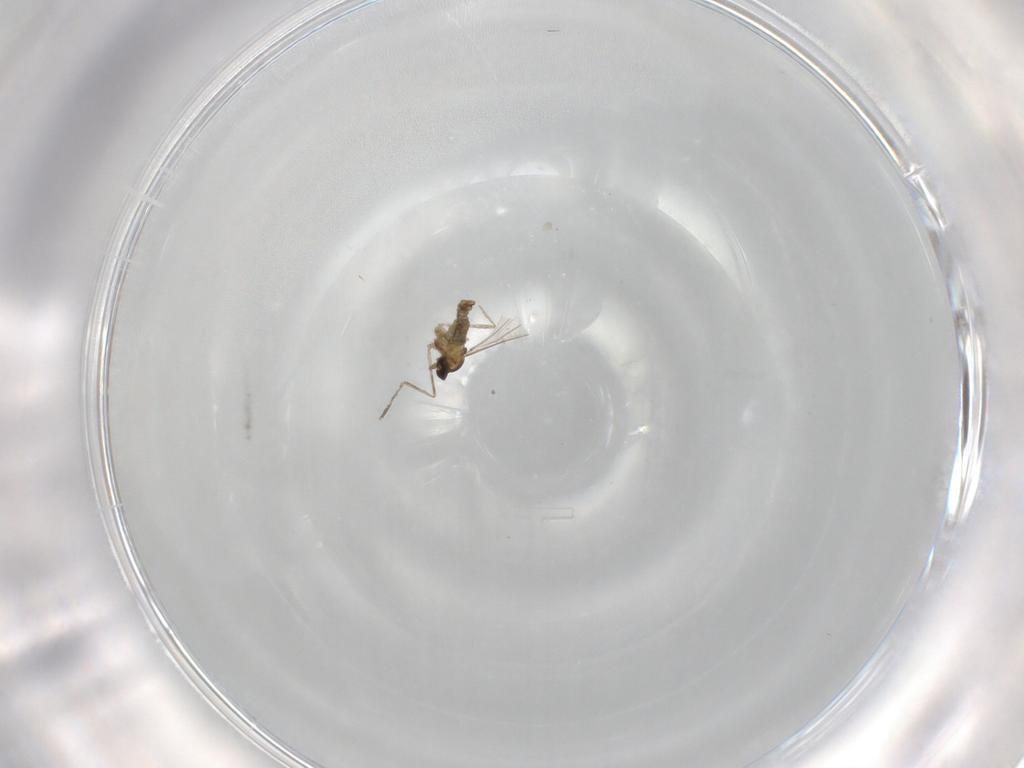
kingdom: Animalia
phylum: Arthropoda
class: Insecta
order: Diptera
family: Cecidomyiidae
